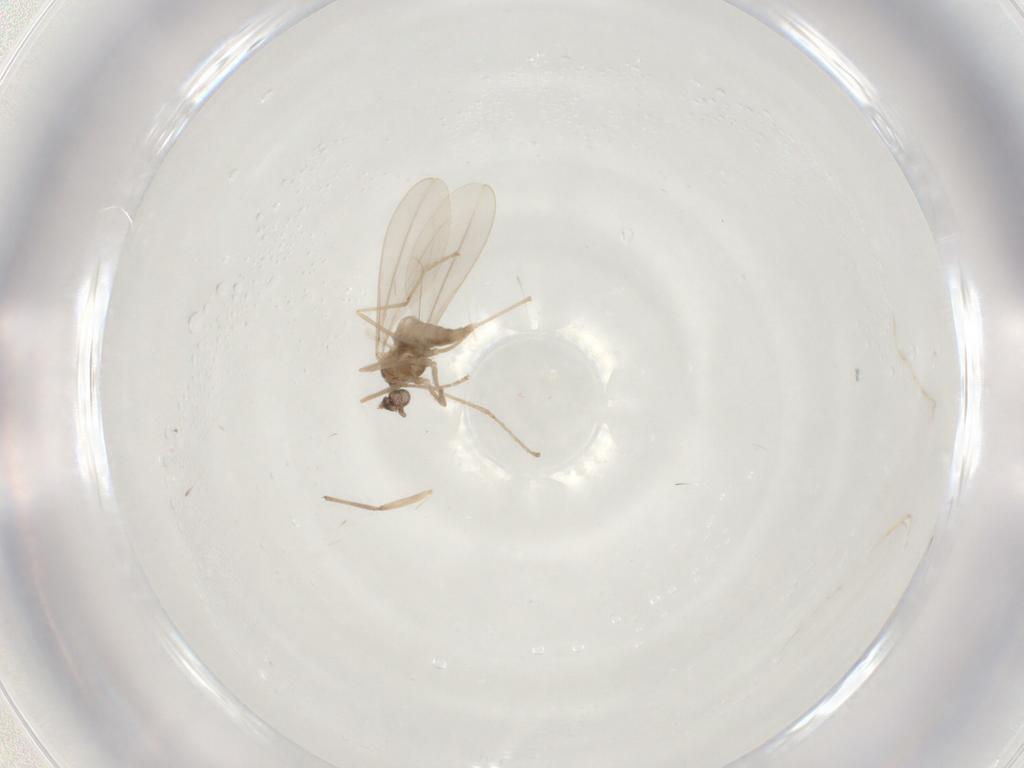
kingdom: Animalia
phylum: Arthropoda
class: Insecta
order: Diptera
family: Cecidomyiidae
